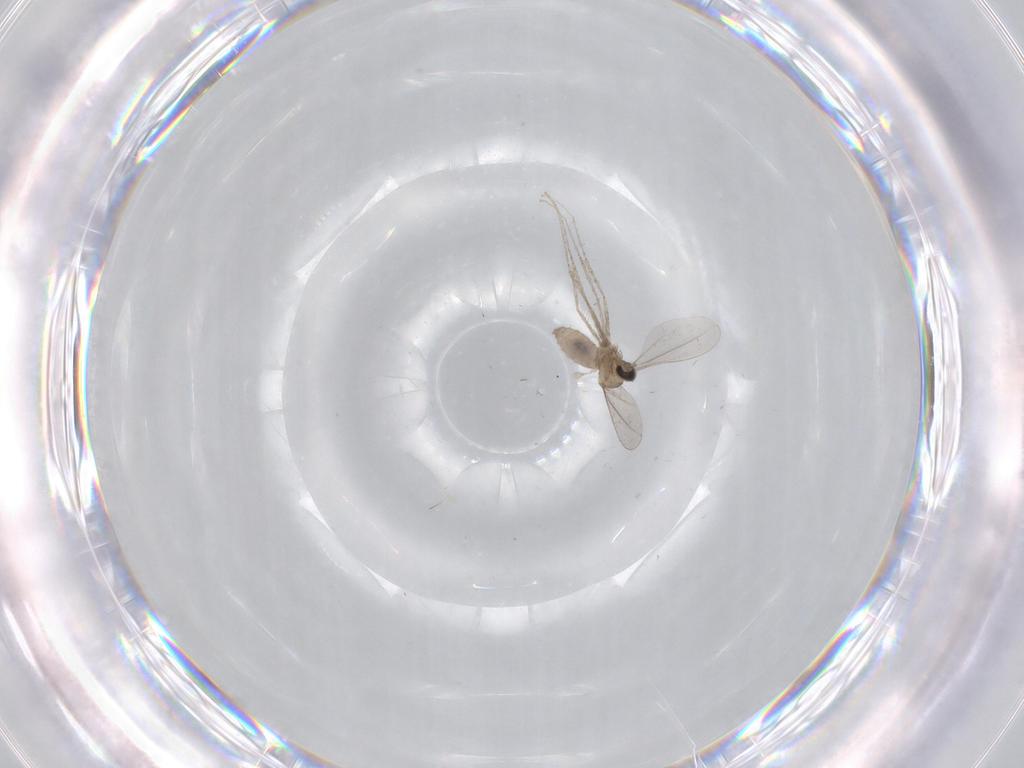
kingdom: Animalia
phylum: Arthropoda
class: Insecta
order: Diptera
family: Cecidomyiidae
